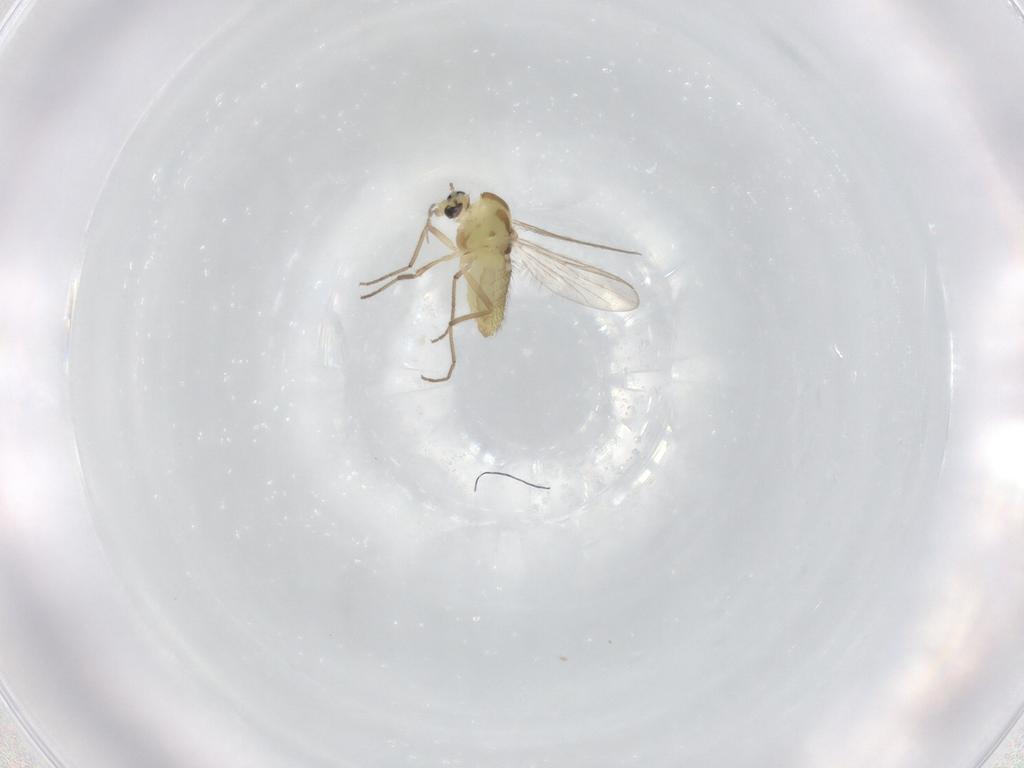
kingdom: Animalia
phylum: Arthropoda
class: Insecta
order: Diptera
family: Chironomidae
